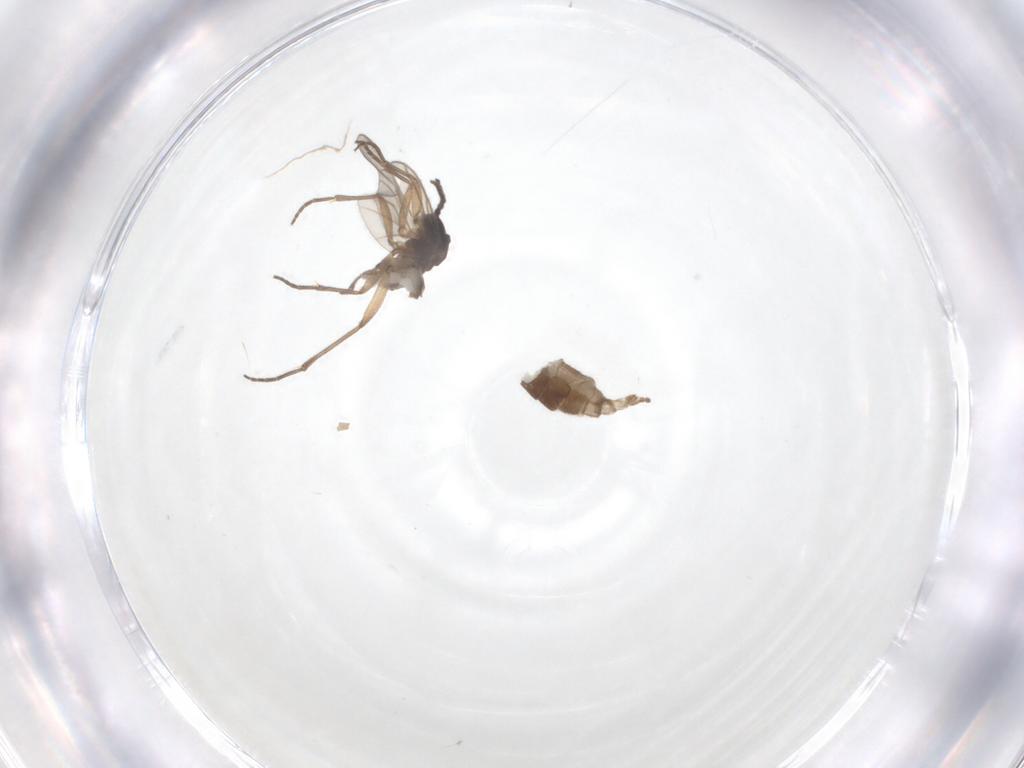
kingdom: Animalia
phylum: Arthropoda
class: Insecta
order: Diptera
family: Sciaridae
